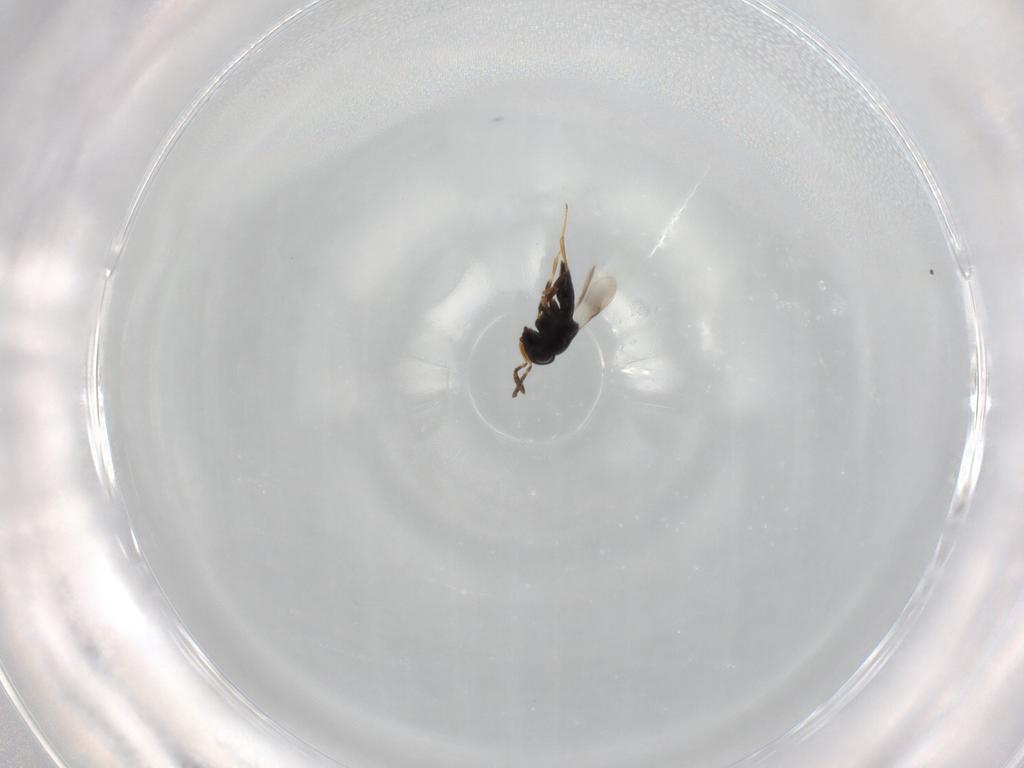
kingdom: Animalia
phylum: Arthropoda
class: Insecta
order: Hymenoptera
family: Scelionidae
